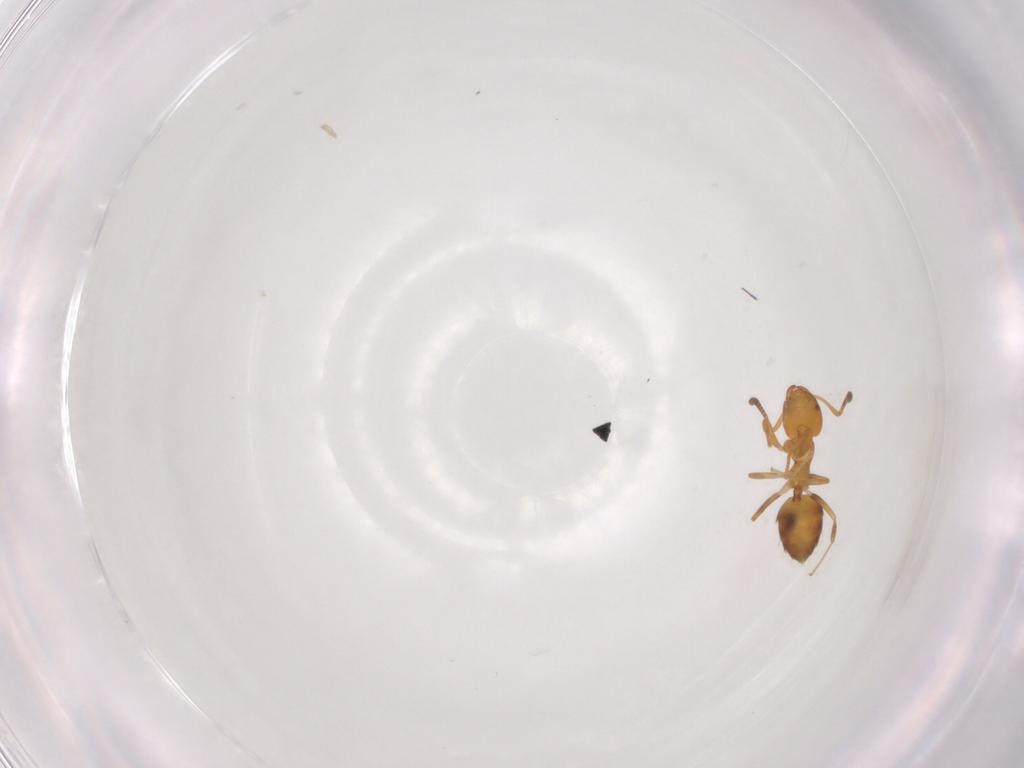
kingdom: Animalia
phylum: Arthropoda
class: Insecta
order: Hymenoptera
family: Formicidae
